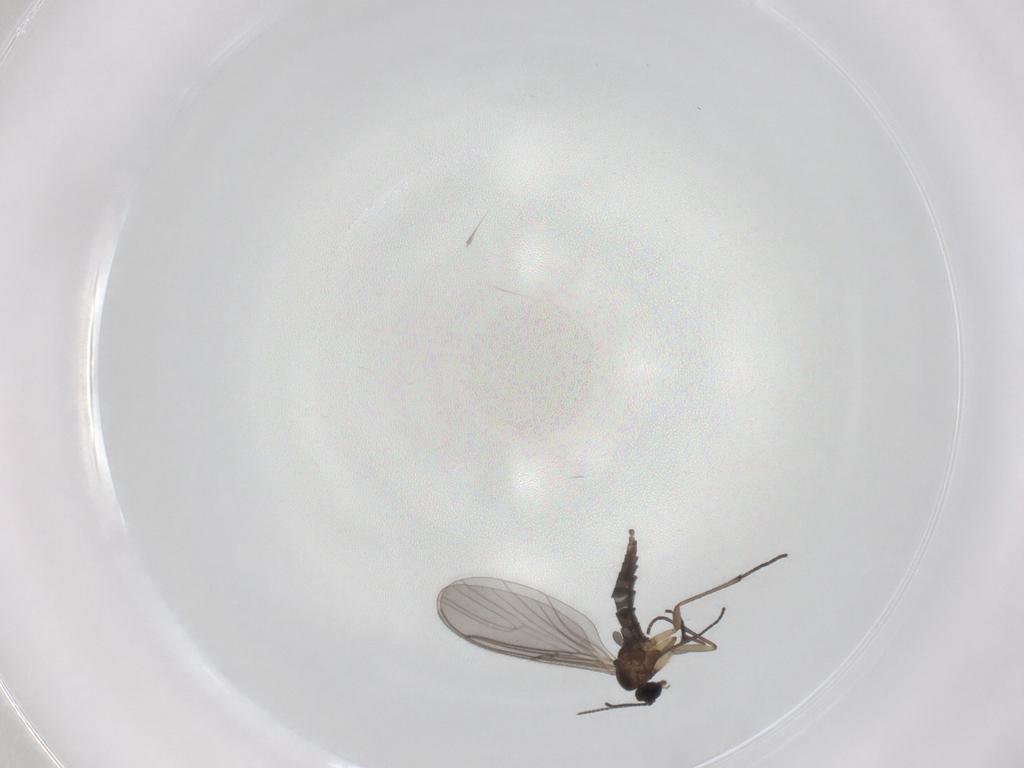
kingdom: Animalia
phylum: Arthropoda
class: Insecta
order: Diptera
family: Sciaridae
